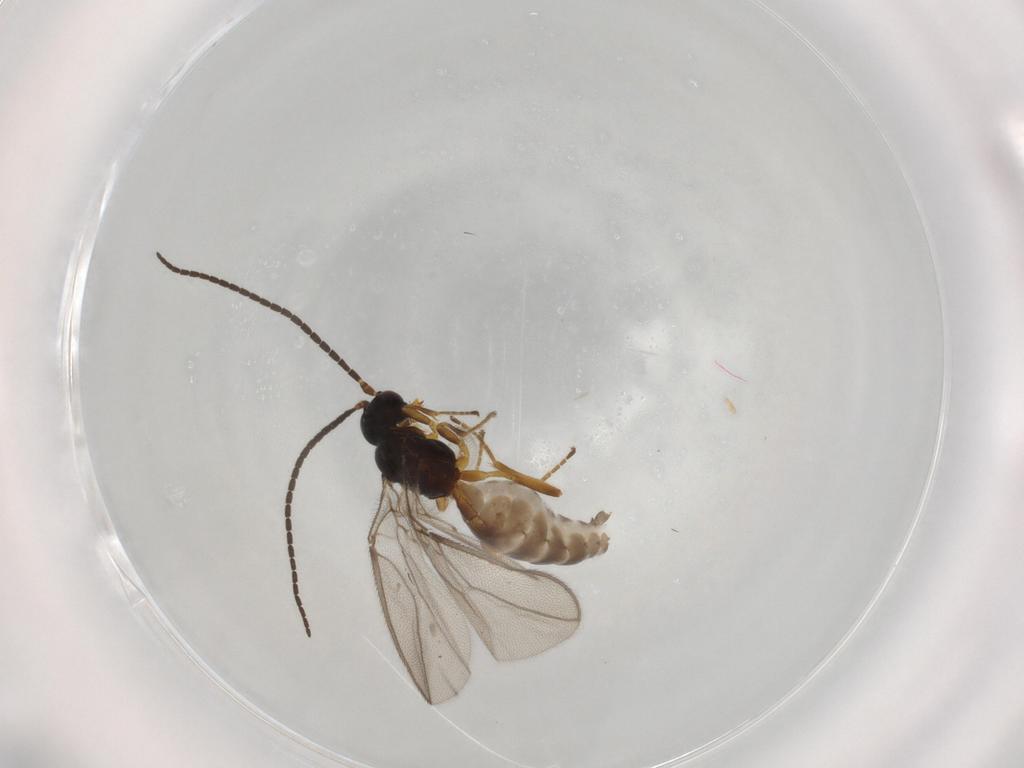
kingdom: Animalia
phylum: Arthropoda
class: Insecta
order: Hymenoptera
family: Braconidae
